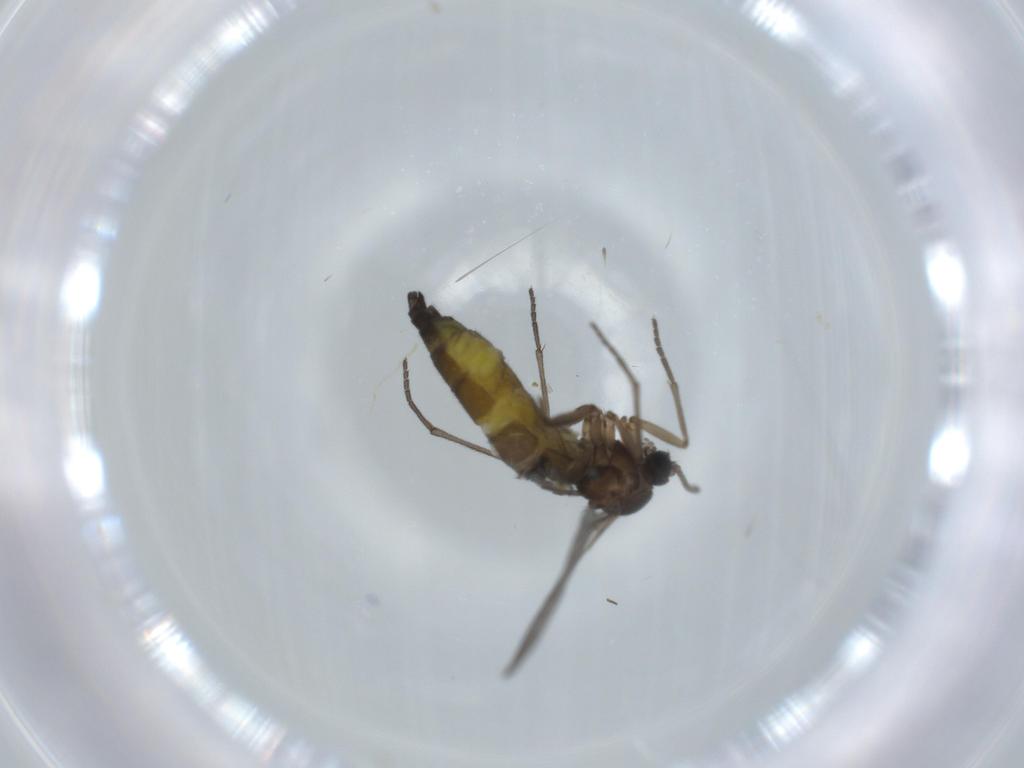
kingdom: Animalia
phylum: Arthropoda
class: Insecta
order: Diptera
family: Sciaridae
